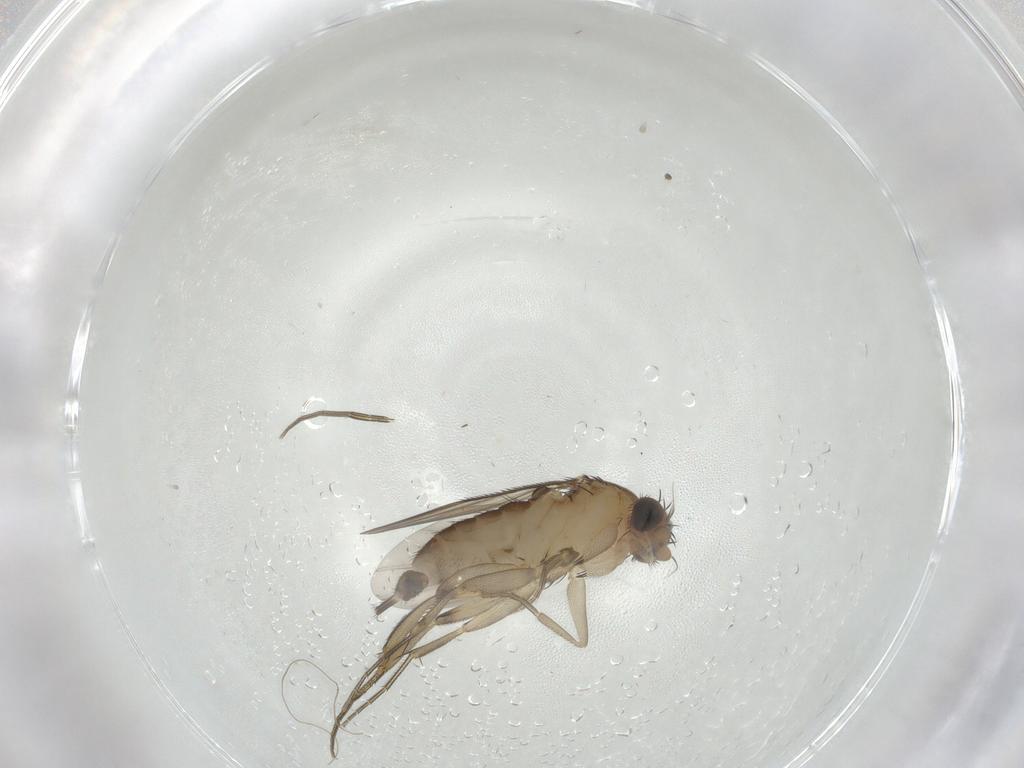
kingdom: Animalia
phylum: Arthropoda
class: Insecta
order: Diptera
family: Phoridae
